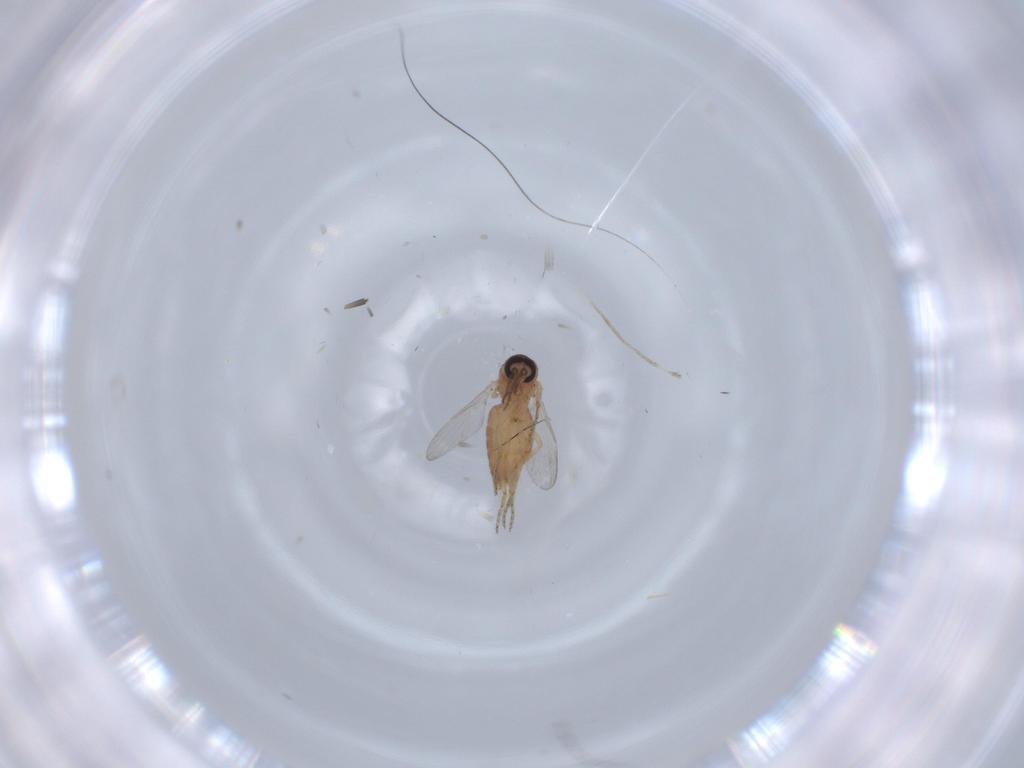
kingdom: Animalia
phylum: Arthropoda
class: Insecta
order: Diptera
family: Ceratopogonidae
